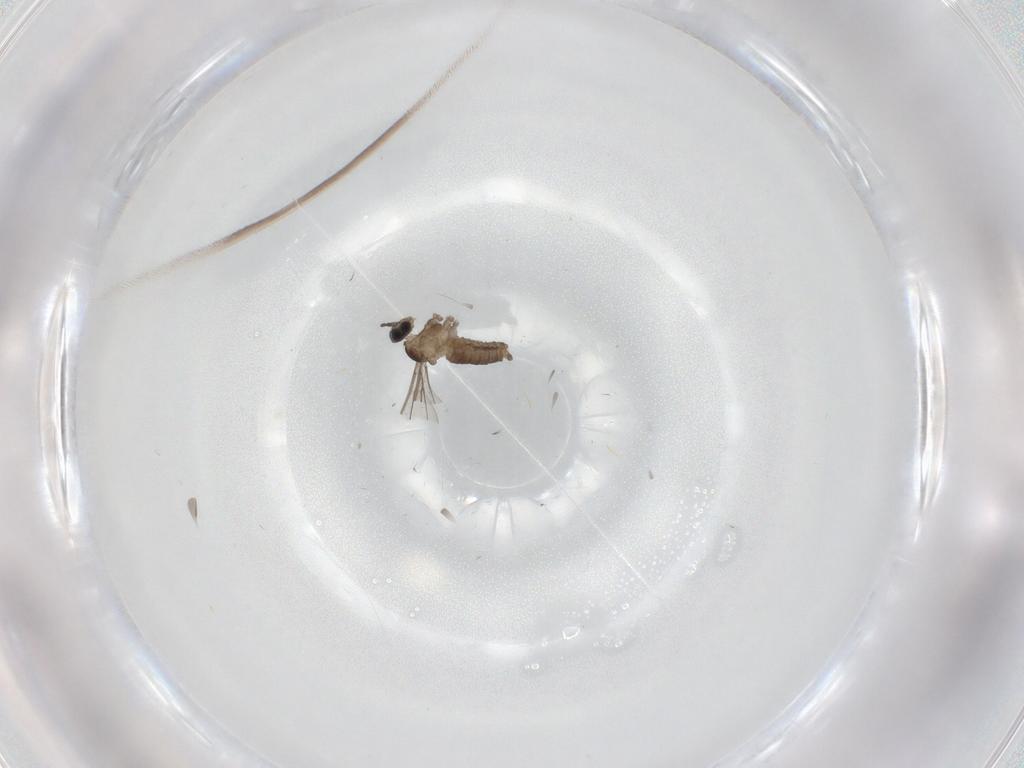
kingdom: Animalia
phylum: Arthropoda
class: Insecta
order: Diptera
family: Cecidomyiidae
